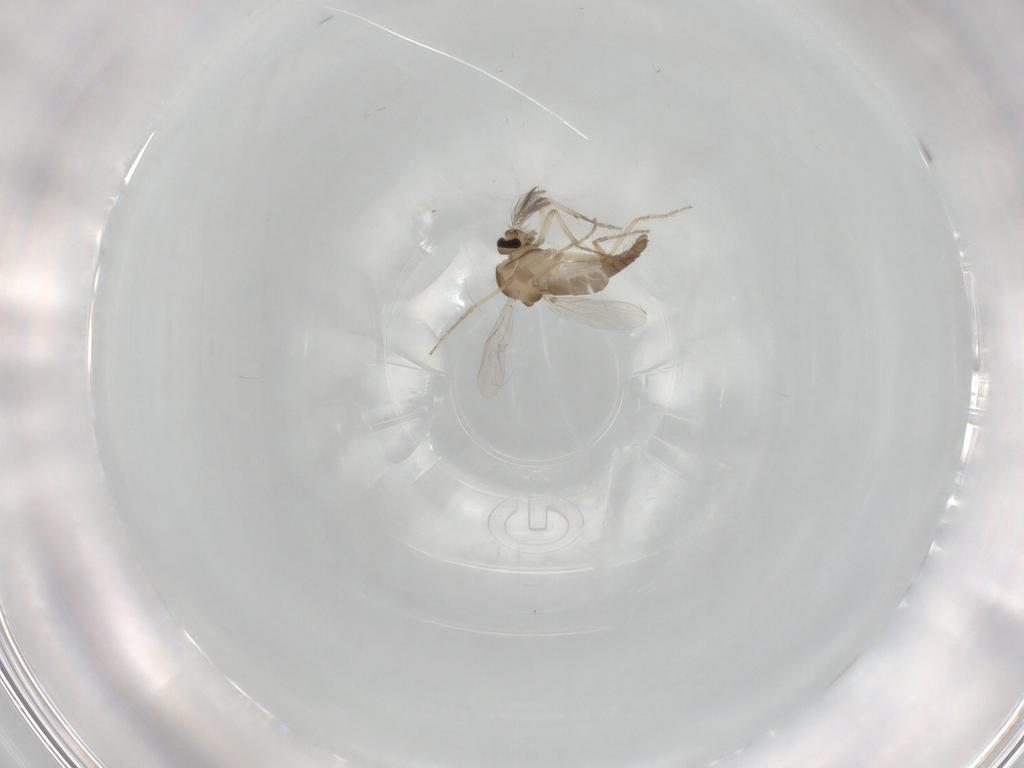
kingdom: Animalia
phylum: Arthropoda
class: Insecta
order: Diptera
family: Ceratopogonidae
